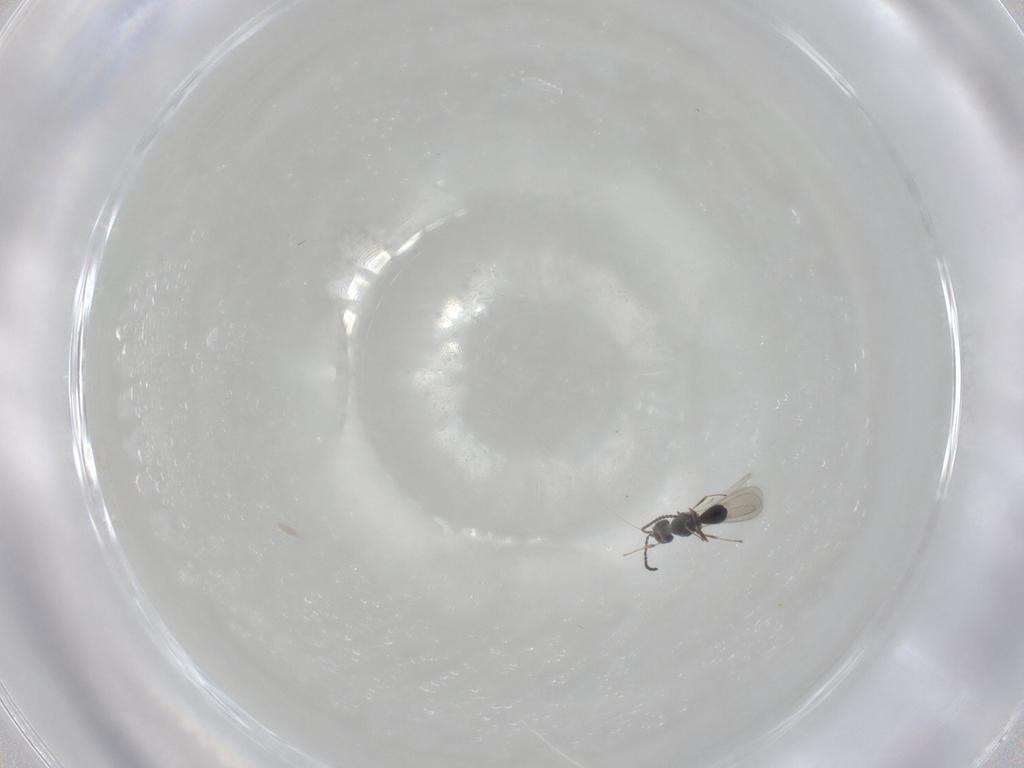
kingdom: Animalia
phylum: Arthropoda
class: Insecta
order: Hymenoptera
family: Scelionidae
